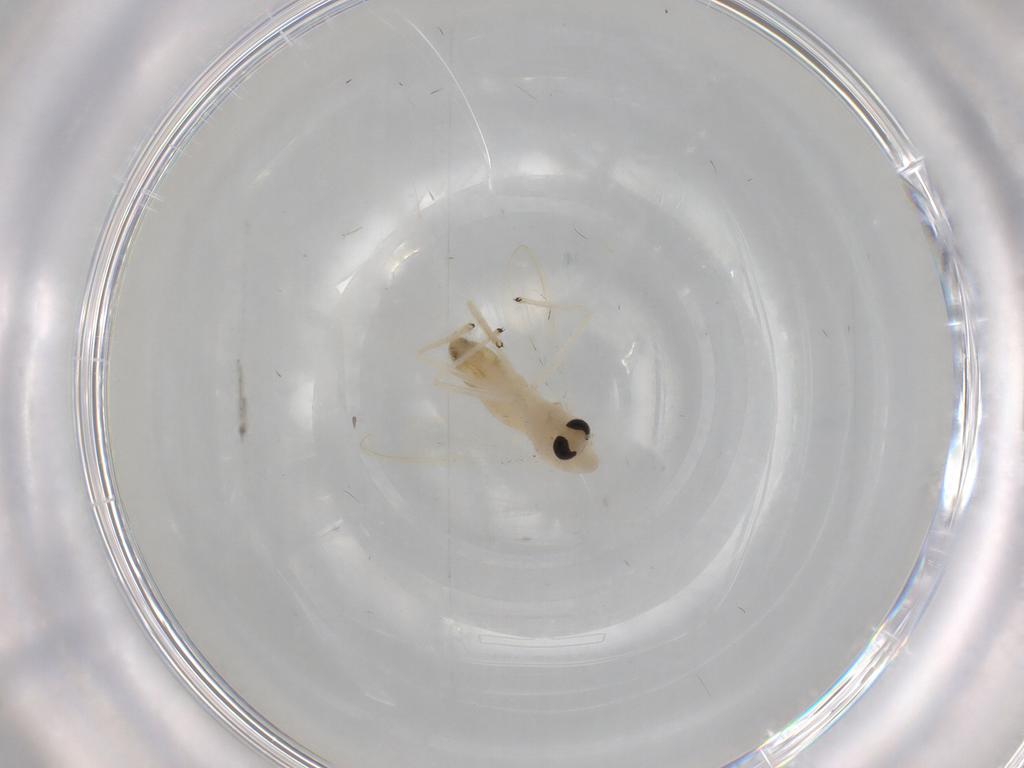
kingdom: Animalia
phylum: Arthropoda
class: Insecta
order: Diptera
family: Chironomidae
